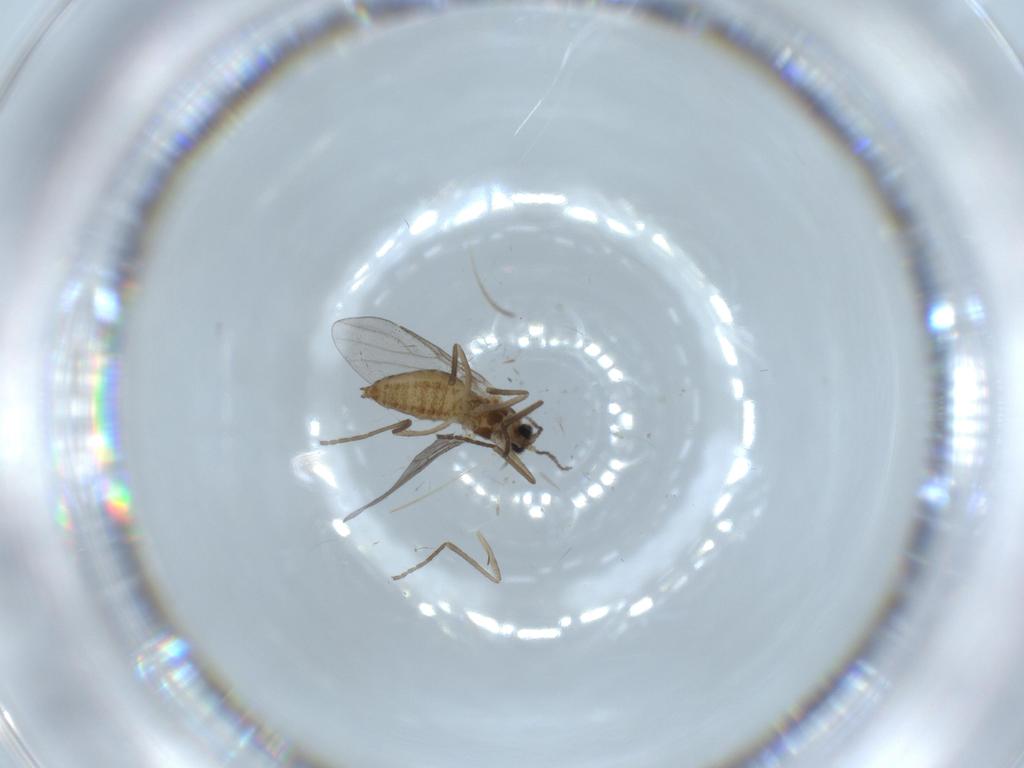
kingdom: Animalia
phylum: Arthropoda
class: Insecta
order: Diptera
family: Cecidomyiidae
